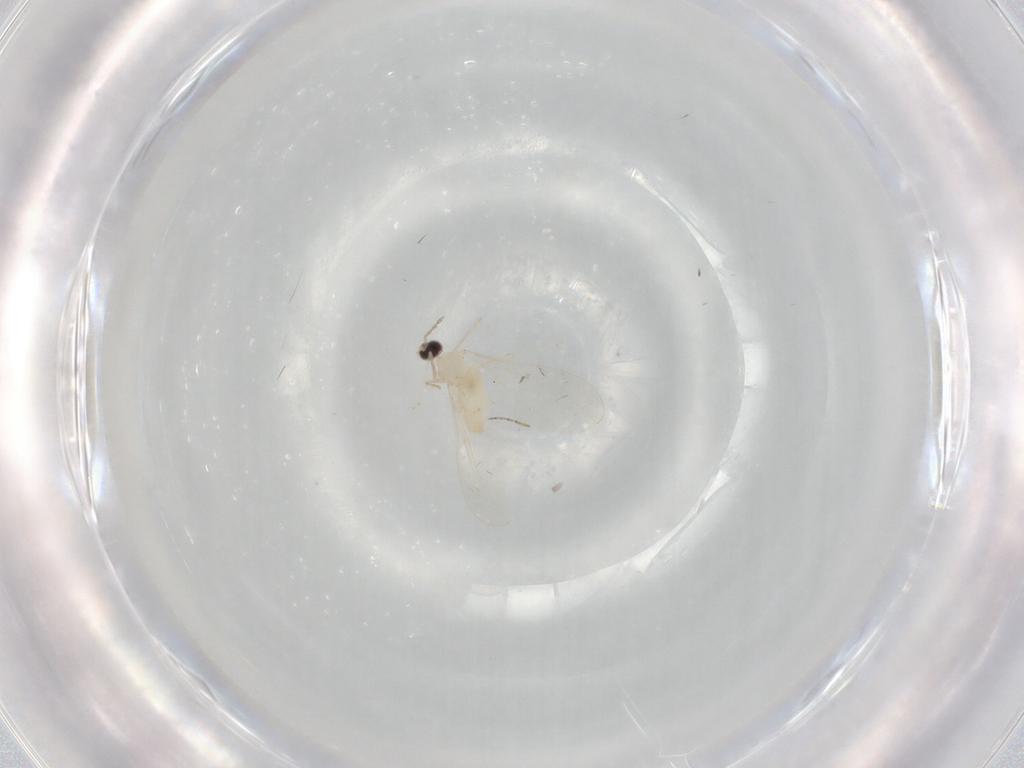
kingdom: Animalia
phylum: Arthropoda
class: Insecta
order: Diptera
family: Cecidomyiidae
